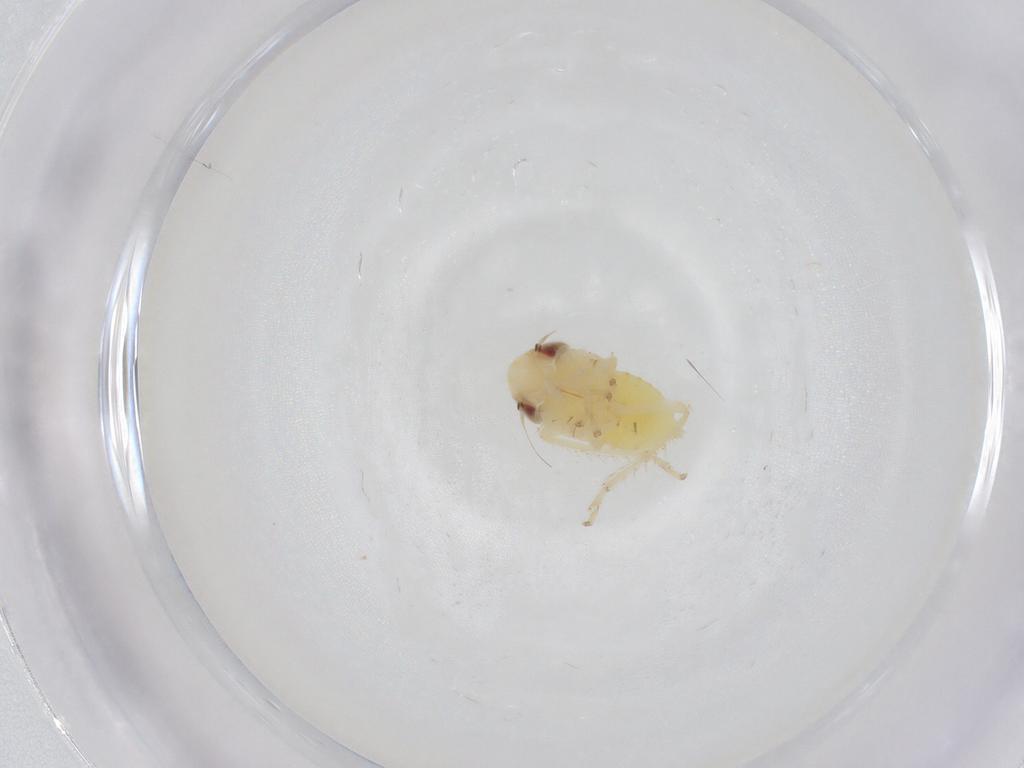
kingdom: Animalia
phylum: Arthropoda
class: Insecta
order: Hemiptera
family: Cicadellidae
